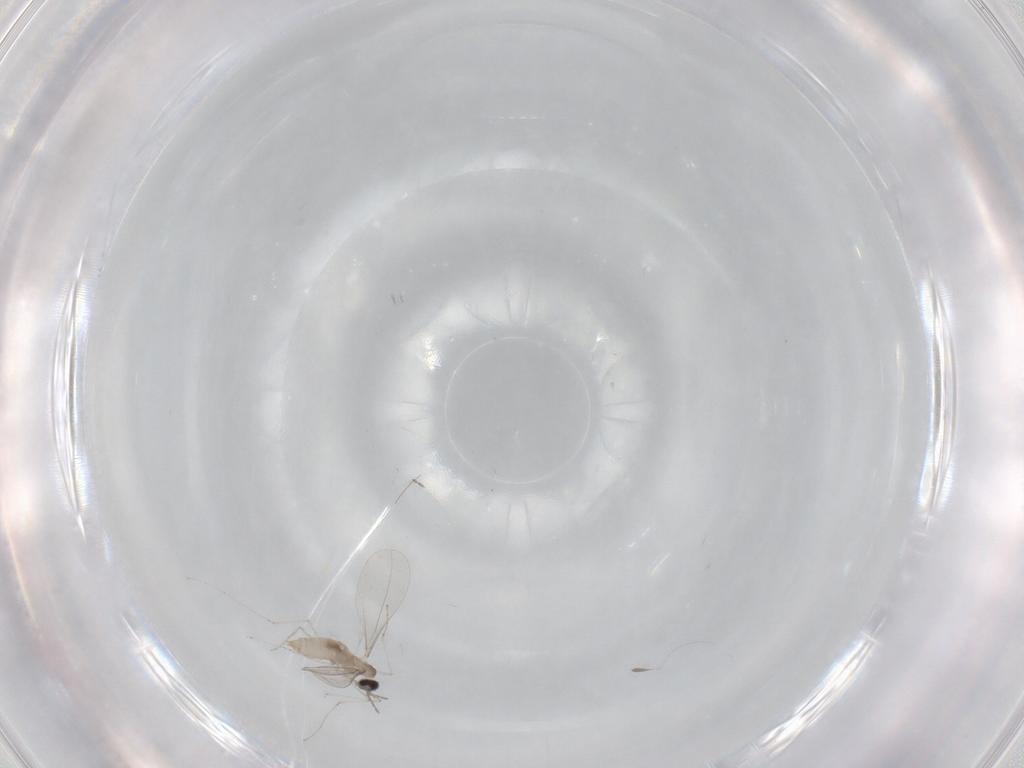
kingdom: Animalia
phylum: Arthropoda
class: Insecta
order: Diptera
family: Cecidomyiidae
